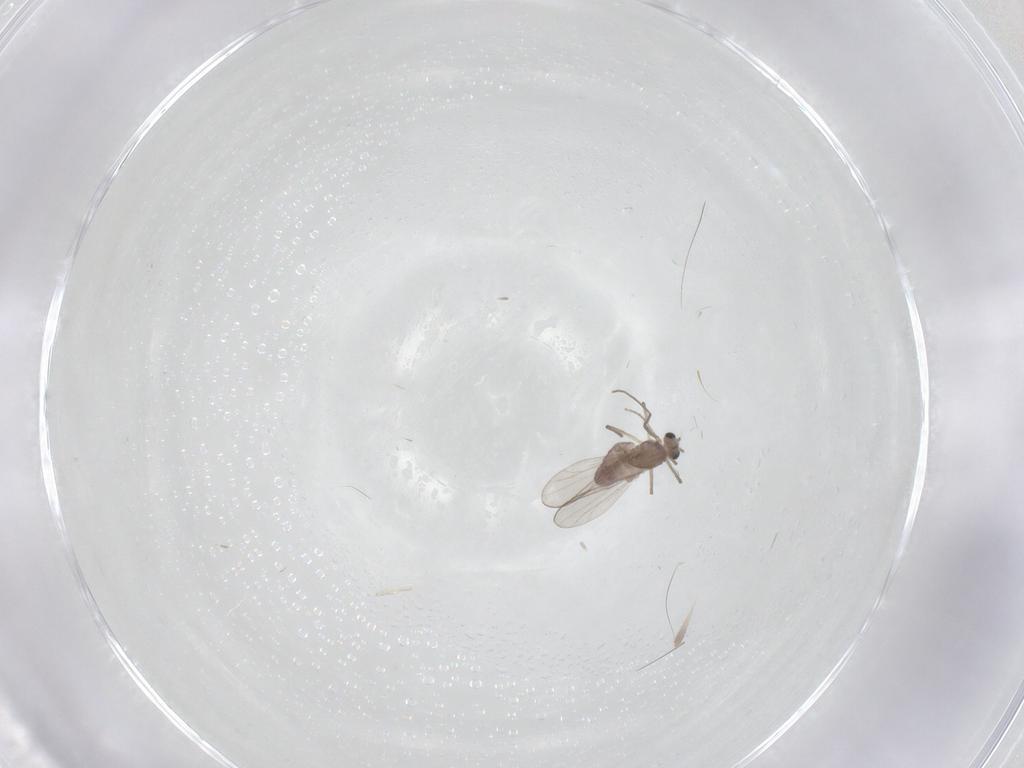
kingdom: Animalia
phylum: Arthropoda
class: Insecta
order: Diptera
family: Chironomidae
